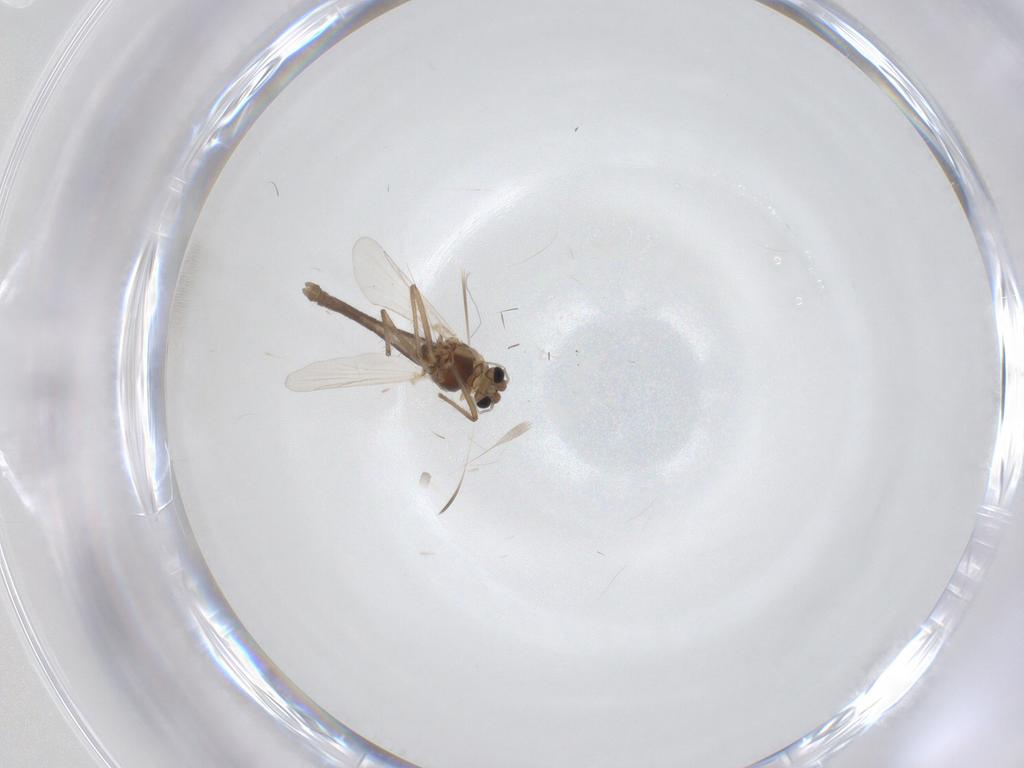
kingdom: Animalia
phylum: Arthropoda
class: Insecta
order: Diptera
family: Chironomidae
